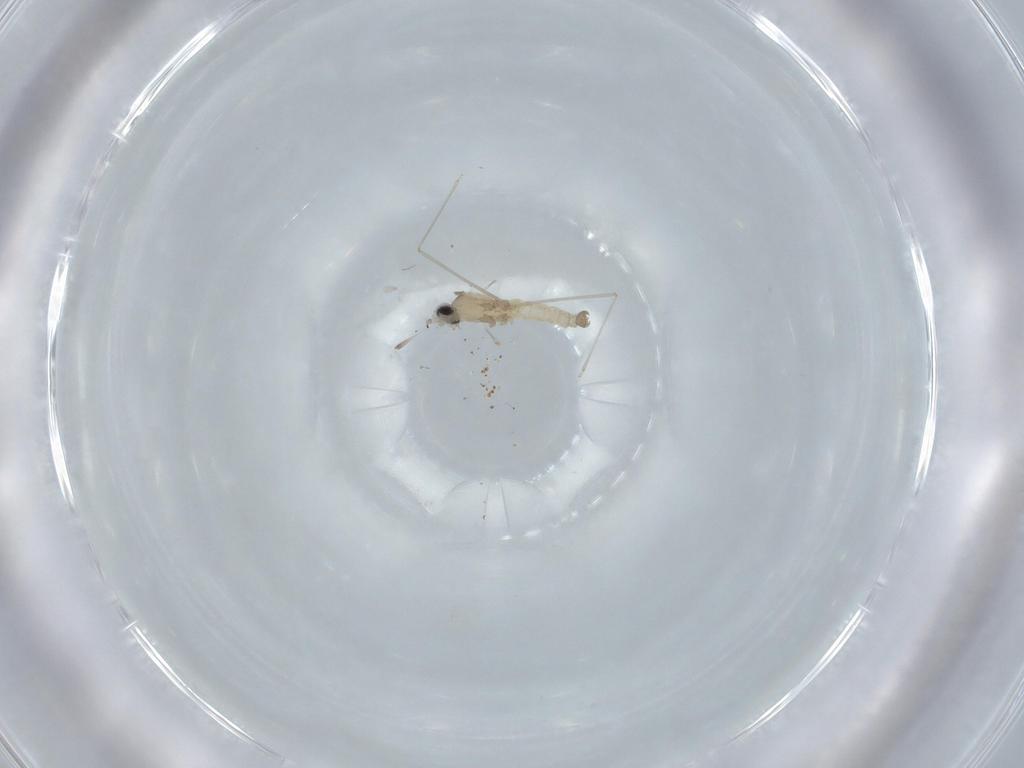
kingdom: Animalia
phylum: Arthropoda
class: Insecta
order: Diptera
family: Cecidomyiidae
